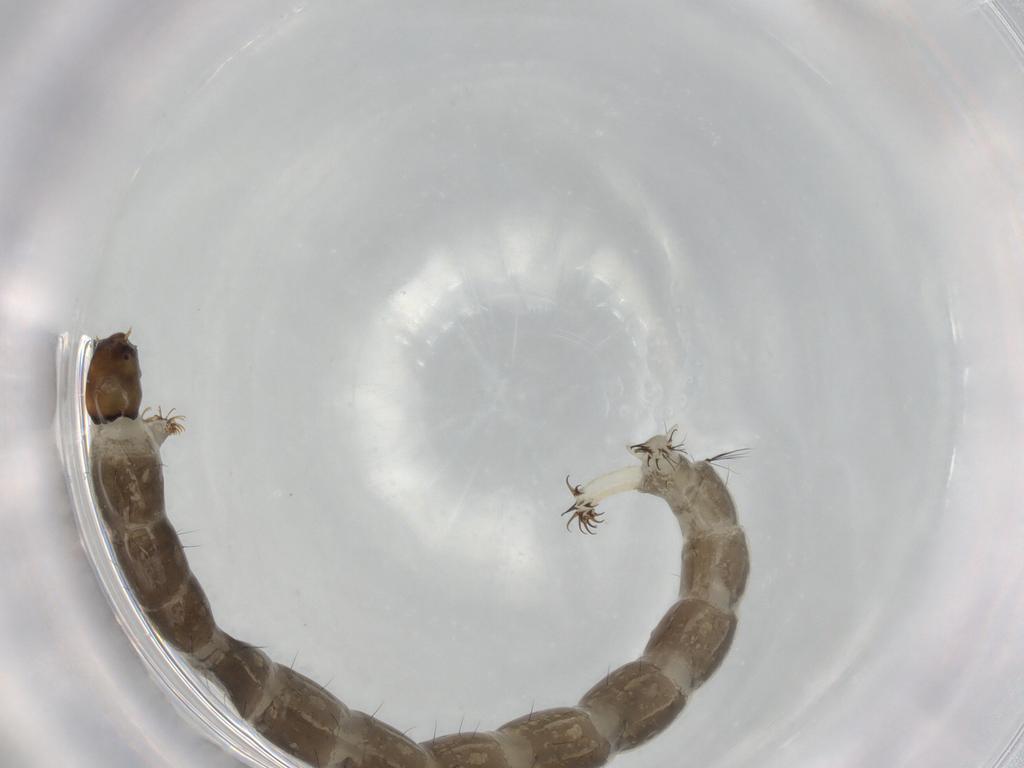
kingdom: Animalia
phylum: Arthropoda
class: Insecta
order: Diptera
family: Chironomidae
